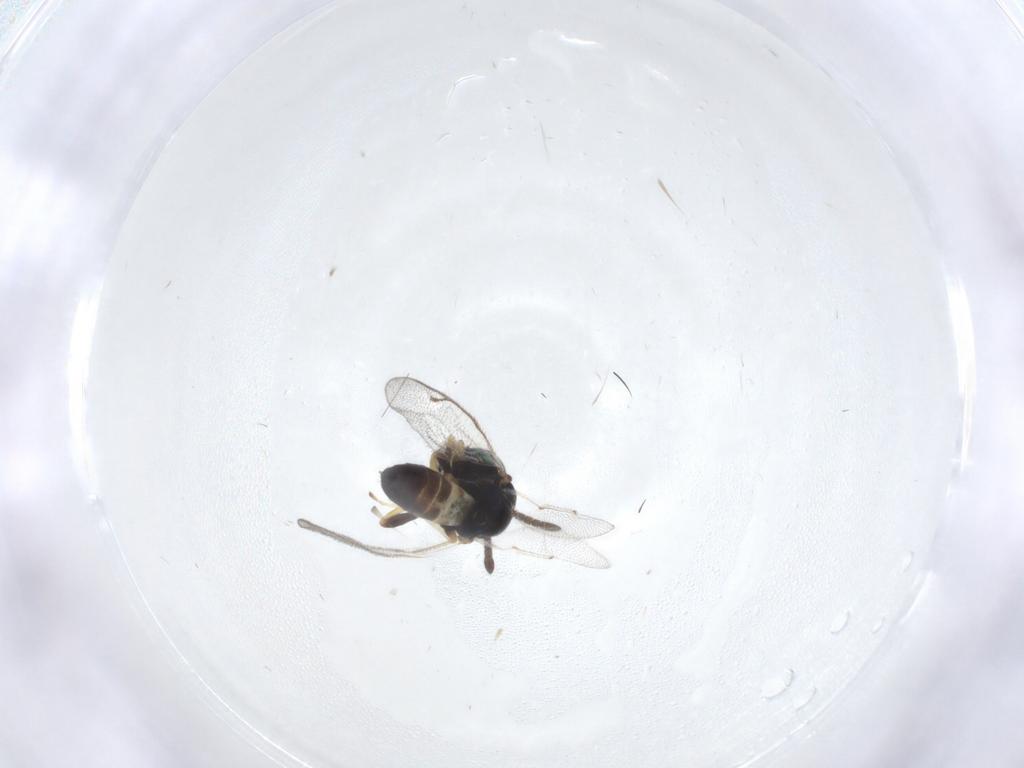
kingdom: Animalia
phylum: Arthropoda
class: Insecta
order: Hymenoptera
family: Pteromalidae
